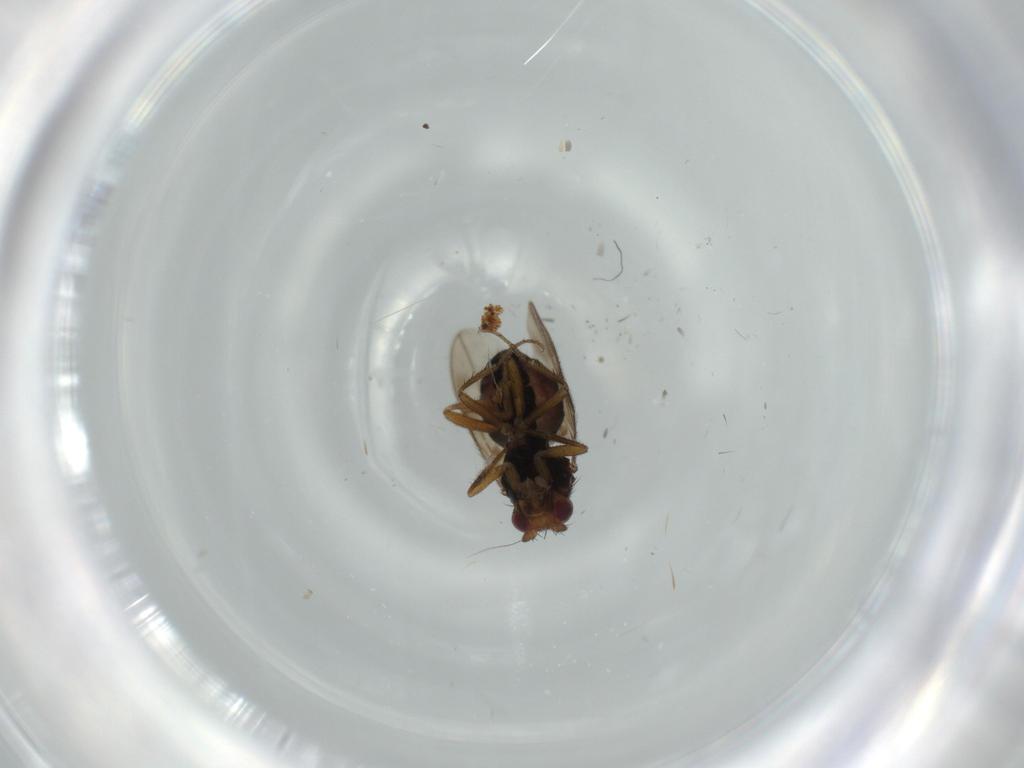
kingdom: Animalia
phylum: Arthropoda
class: Insecta
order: Diptera
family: Sphaeroceridae
